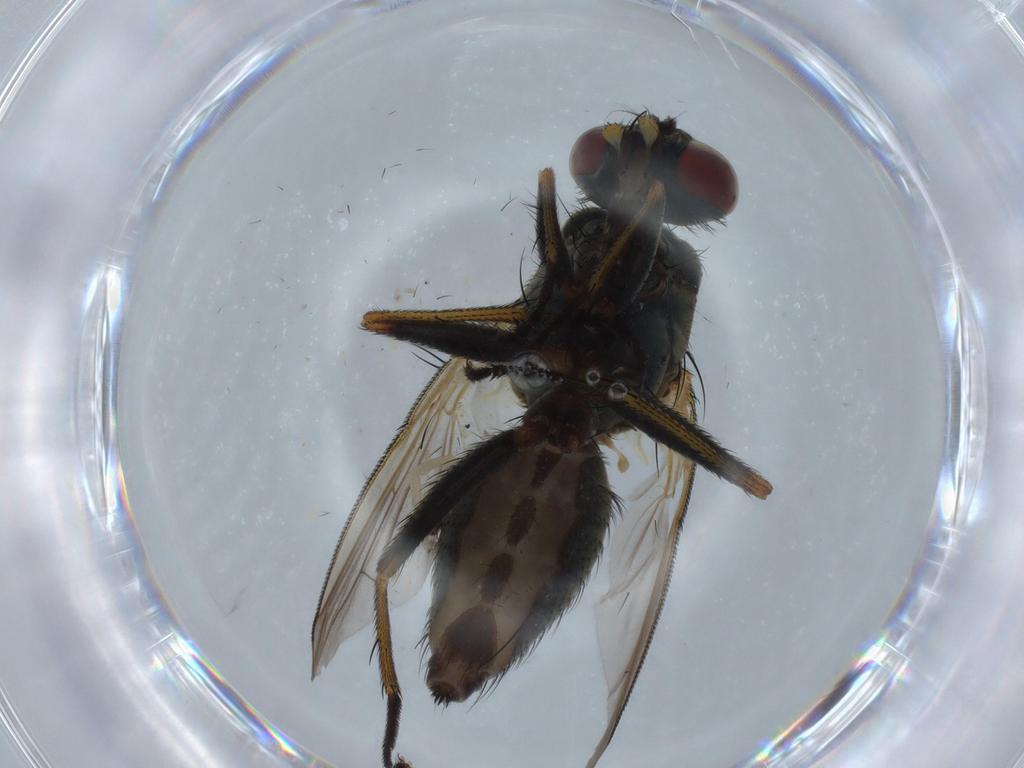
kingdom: Animalia
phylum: Arthropoda
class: Insecta
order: Diptera
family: Muscidae
